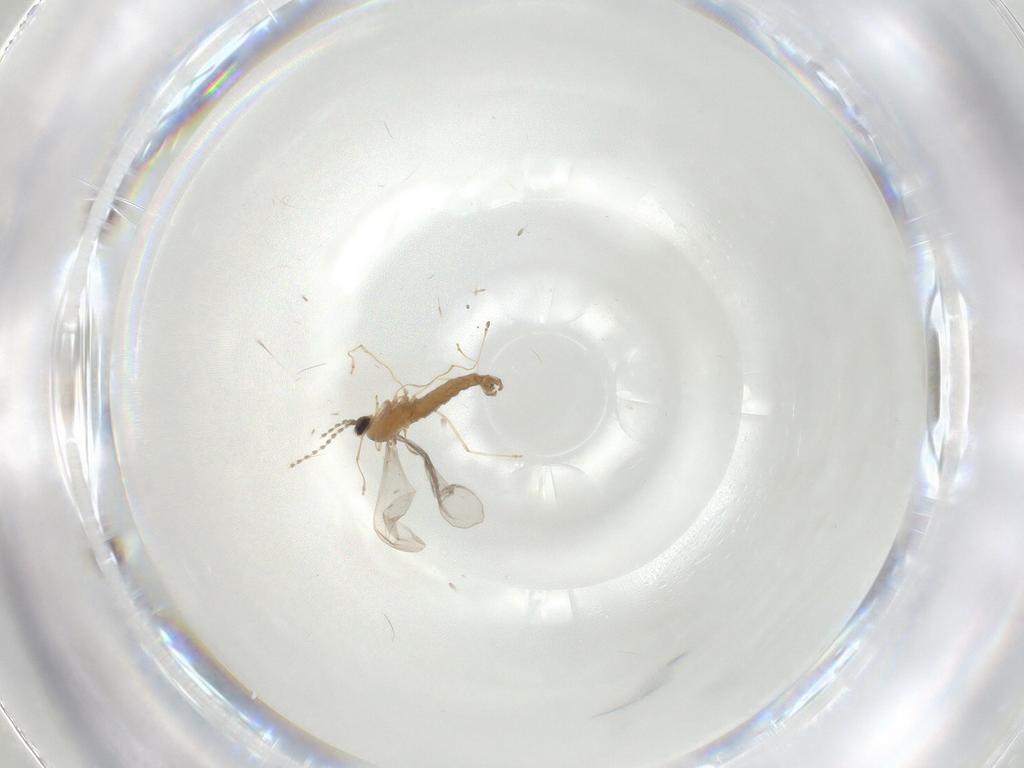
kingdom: Animalia
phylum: Arthropoda
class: Insecta
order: Diptera
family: Cecidomyiidae
